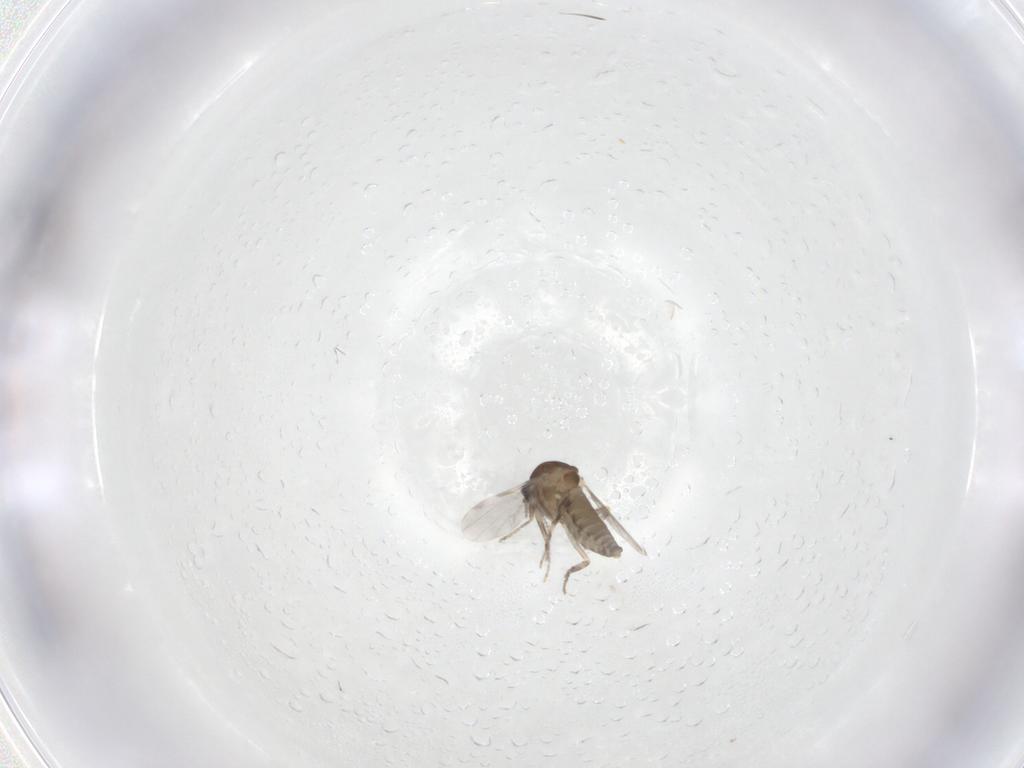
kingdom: Animalia
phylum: Arthropoda
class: Insecta
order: Diptera
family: Ceratopogonidae
